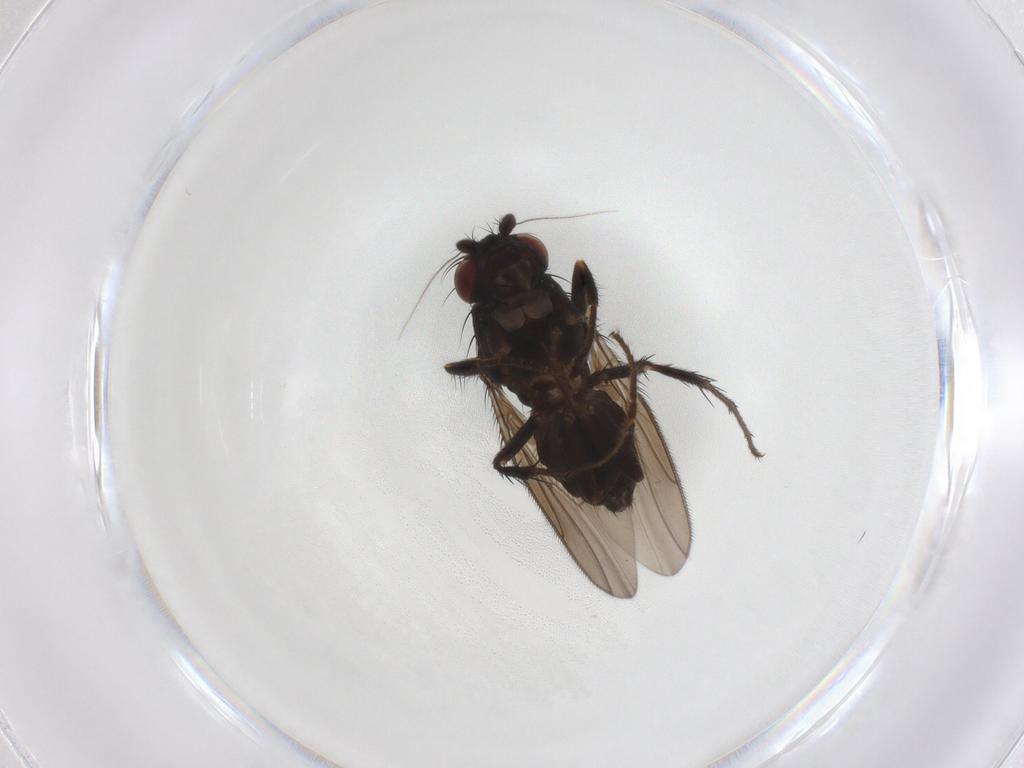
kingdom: Animalia
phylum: Arthropoda
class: Insecta
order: Diptera
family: Sphaeroceridae
